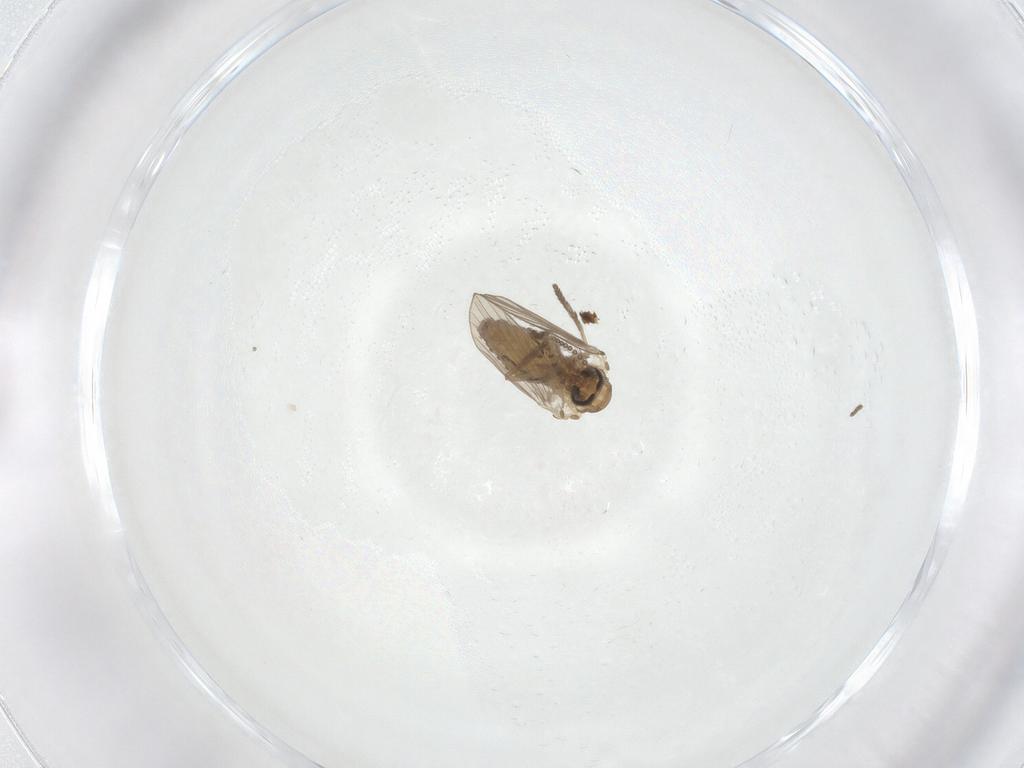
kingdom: Animalia
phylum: Arthropoda
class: Insecta
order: Diptera
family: Psychodidae
